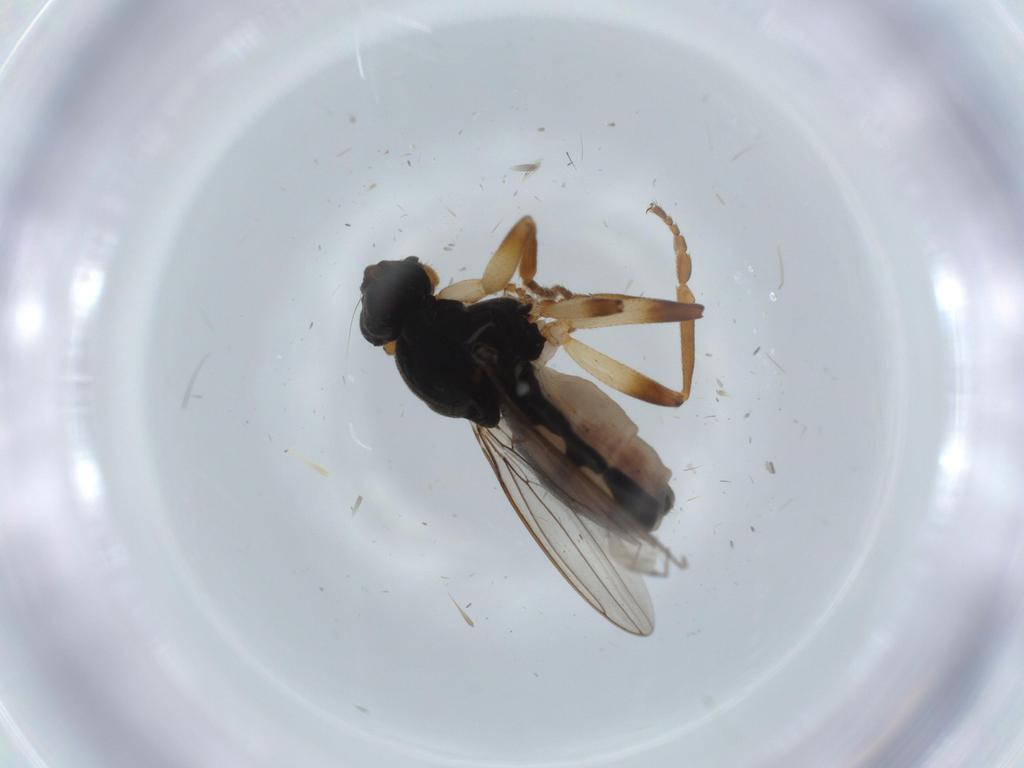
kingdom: Animalia
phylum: Arthropoda
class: Insecta
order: Diptera
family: Sphaeroceridae
